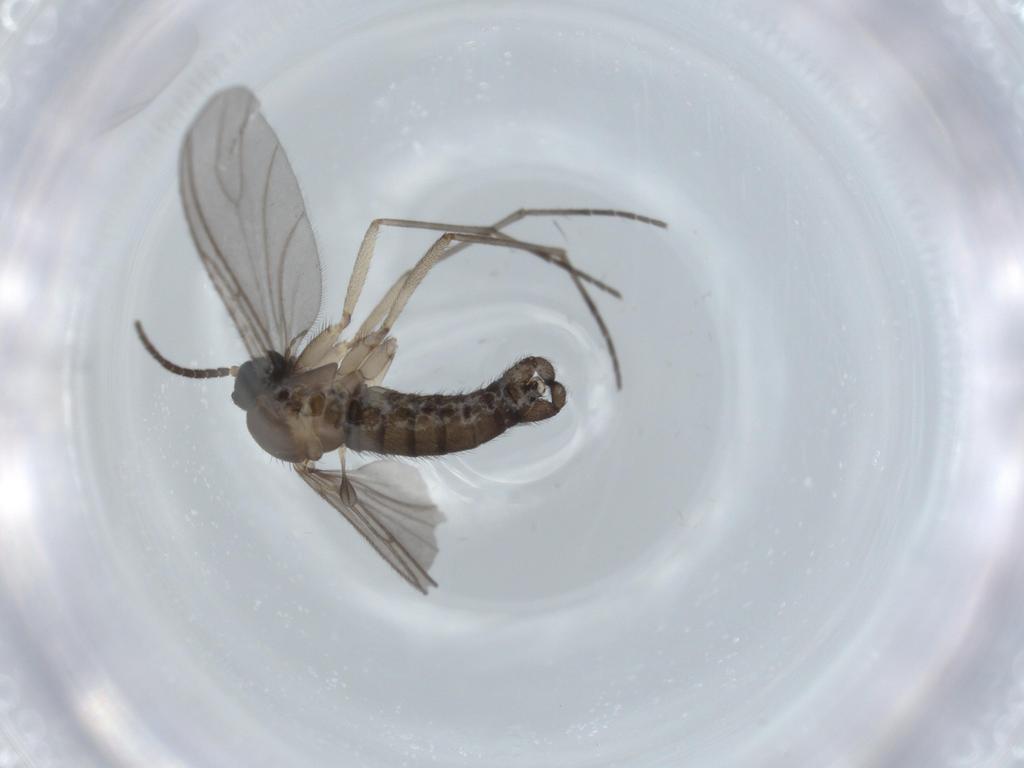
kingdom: Animalia
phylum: Arthropoda
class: Insecta
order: Diptera
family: Sciaridae
